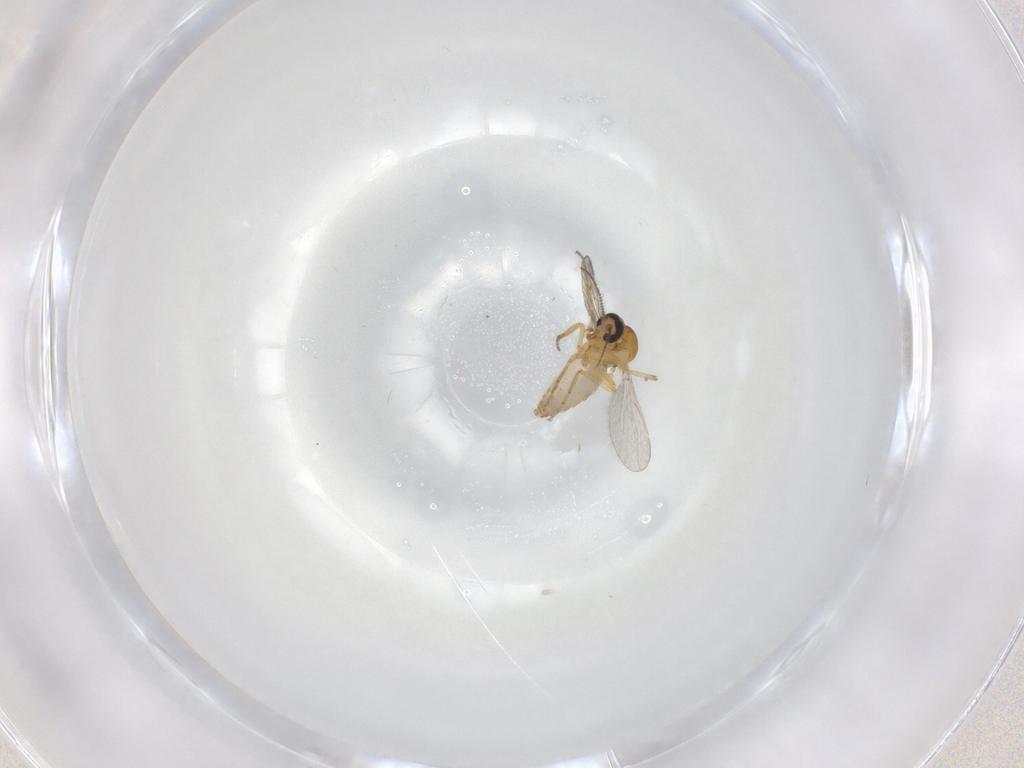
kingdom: Animalia
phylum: Arthropoda
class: Insecta
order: Diptera
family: Ceratopogonidae
